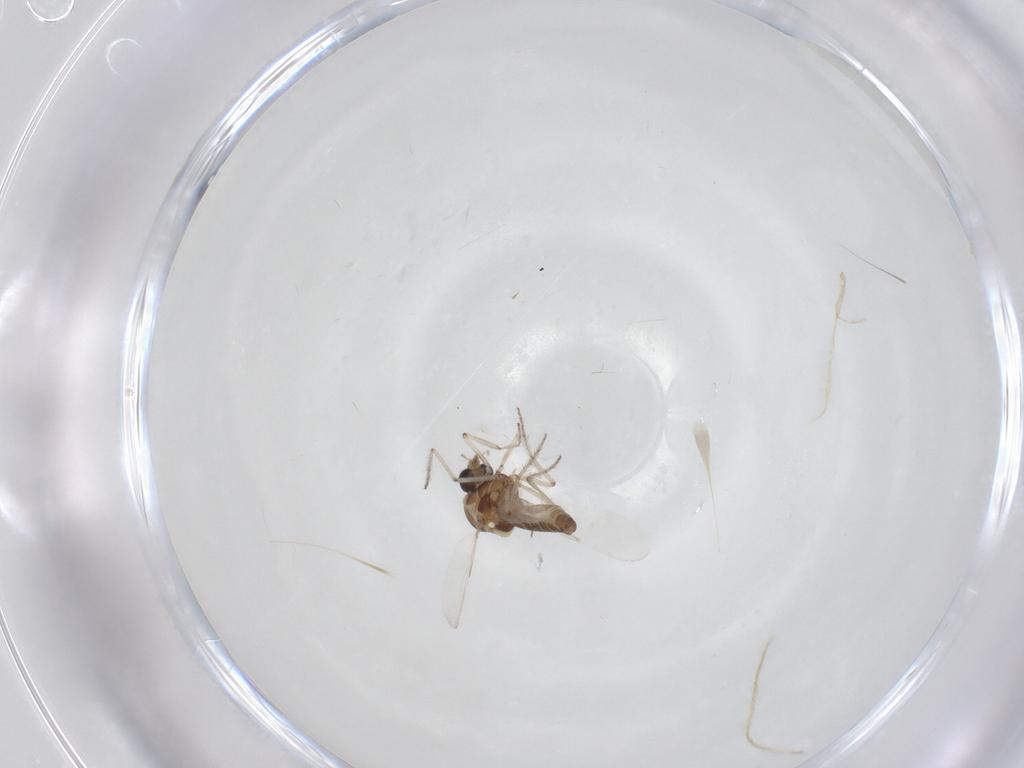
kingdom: Animalia
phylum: Arthropoda
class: Insecta
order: Diptera
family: Ceratopogonidae
